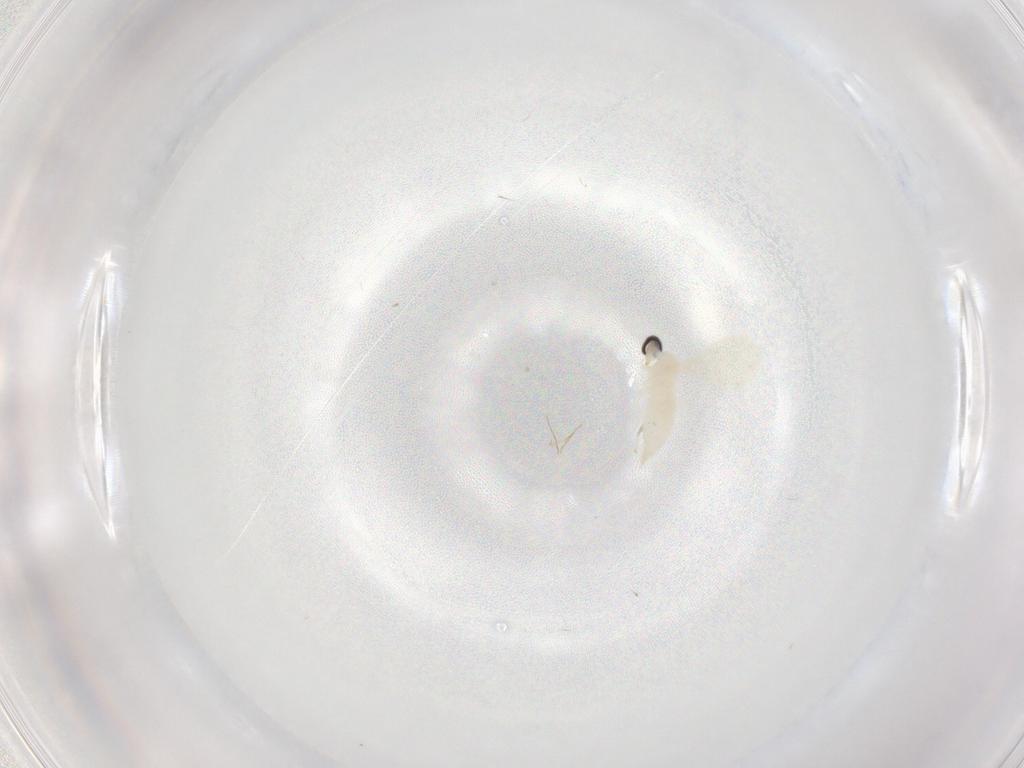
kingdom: Animalia
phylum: Arthropoda
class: Insecta
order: Diptera
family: Cecidomyiidae
